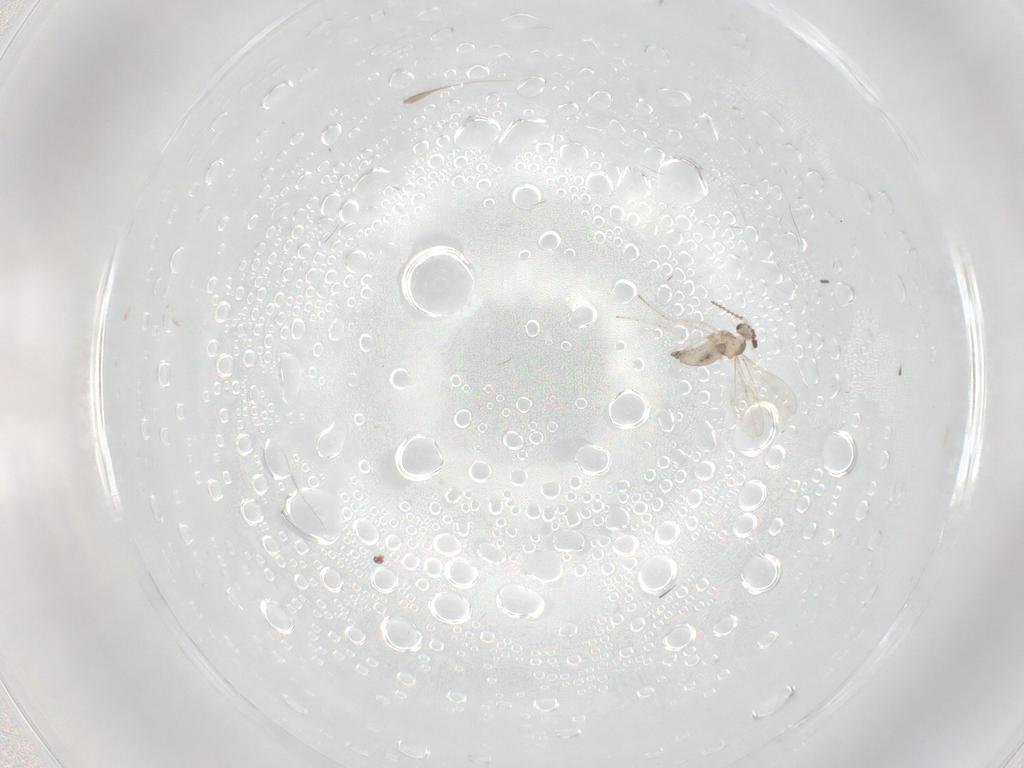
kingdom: Animalia
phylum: Arthropoda
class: Insecta
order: Diptera
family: Cecidomyiidae
